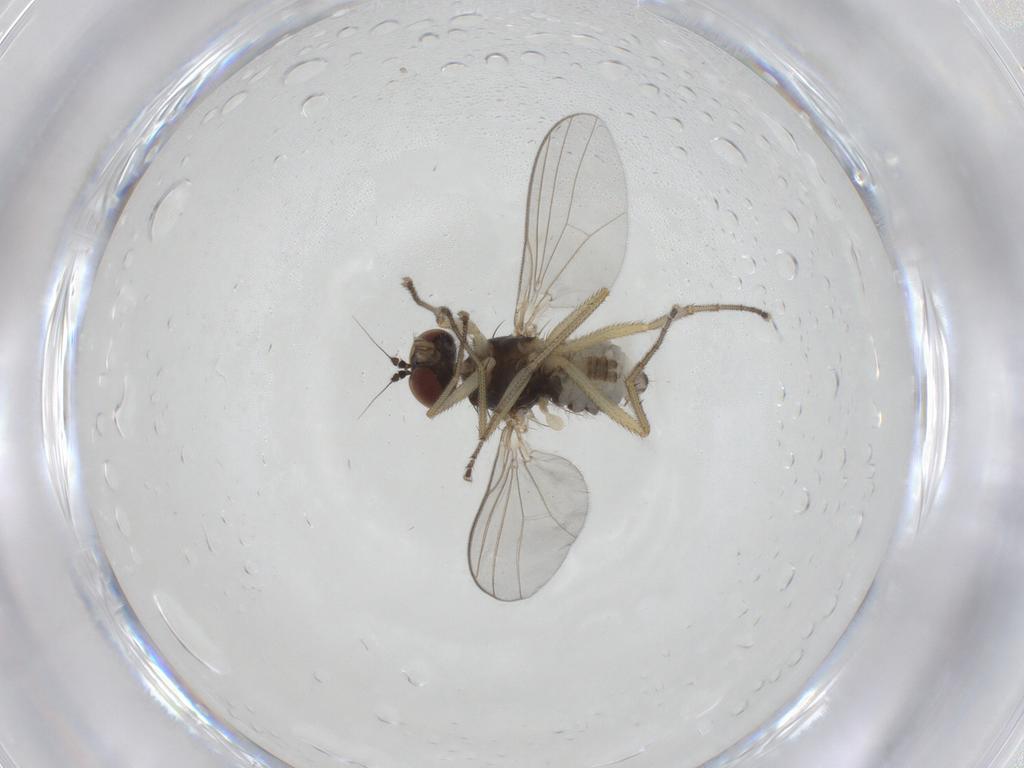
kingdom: Animalia
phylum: Arthropoda
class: Insecta
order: Diptera
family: Dolichopodidae
